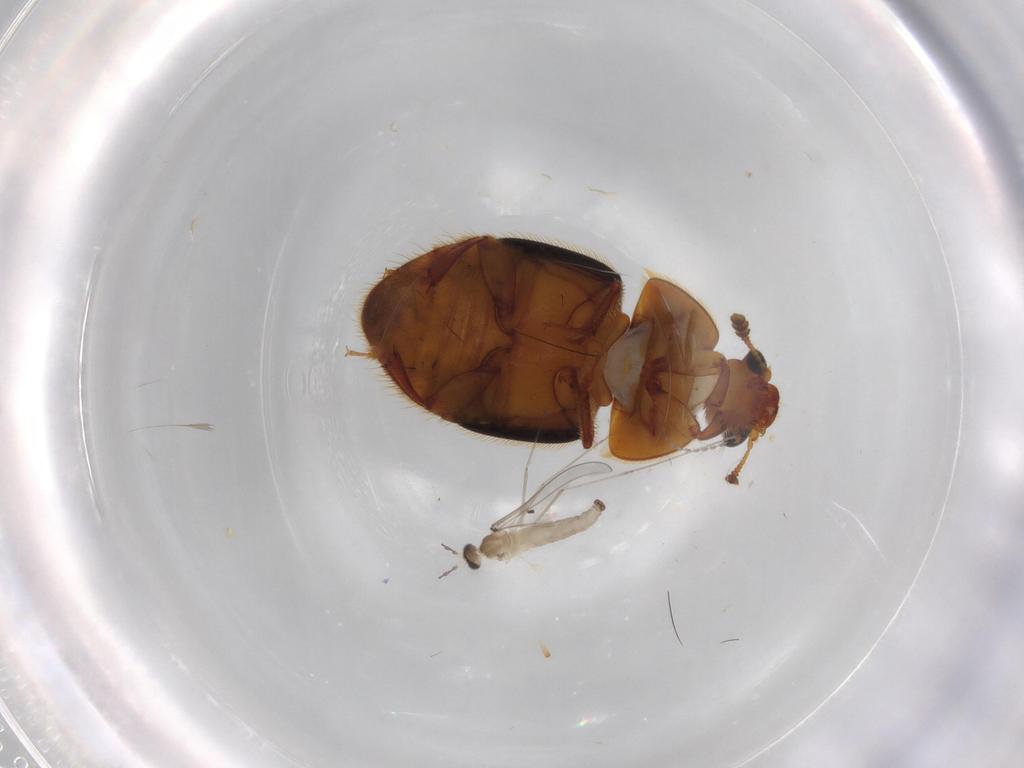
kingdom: Animalia
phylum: Arthropoda
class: Insecta
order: Diptera
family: Cecidomyiidae
